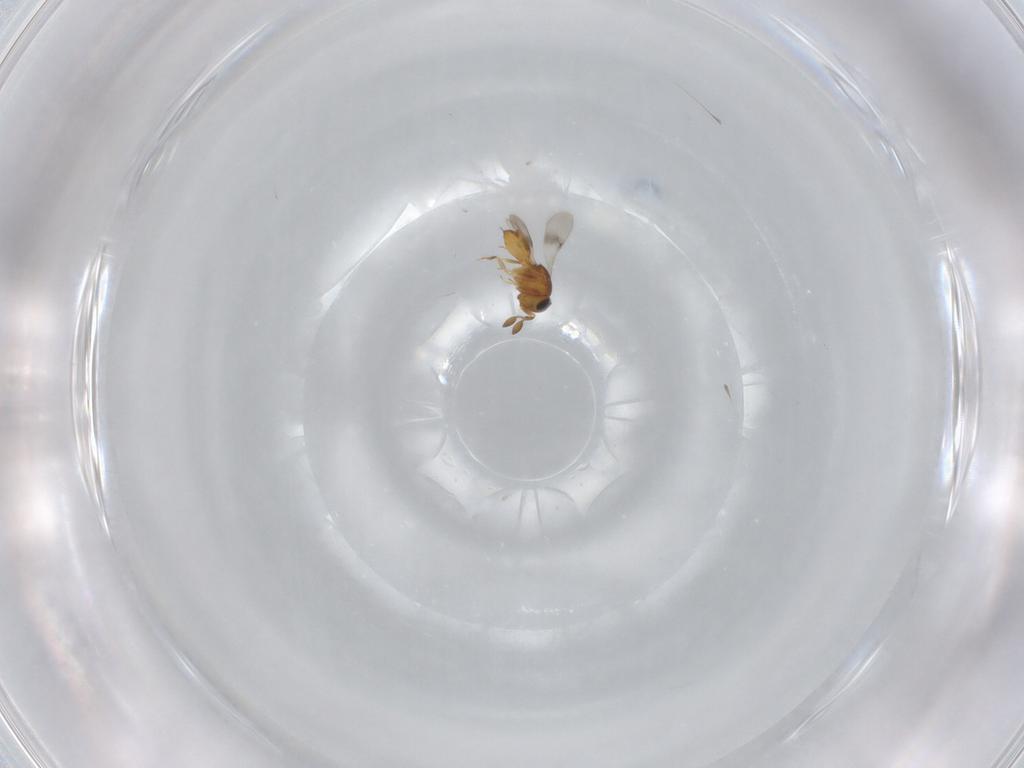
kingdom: Animalia
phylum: Arthropoda
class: Insecta
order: Hymenoptera
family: Scelionidae
